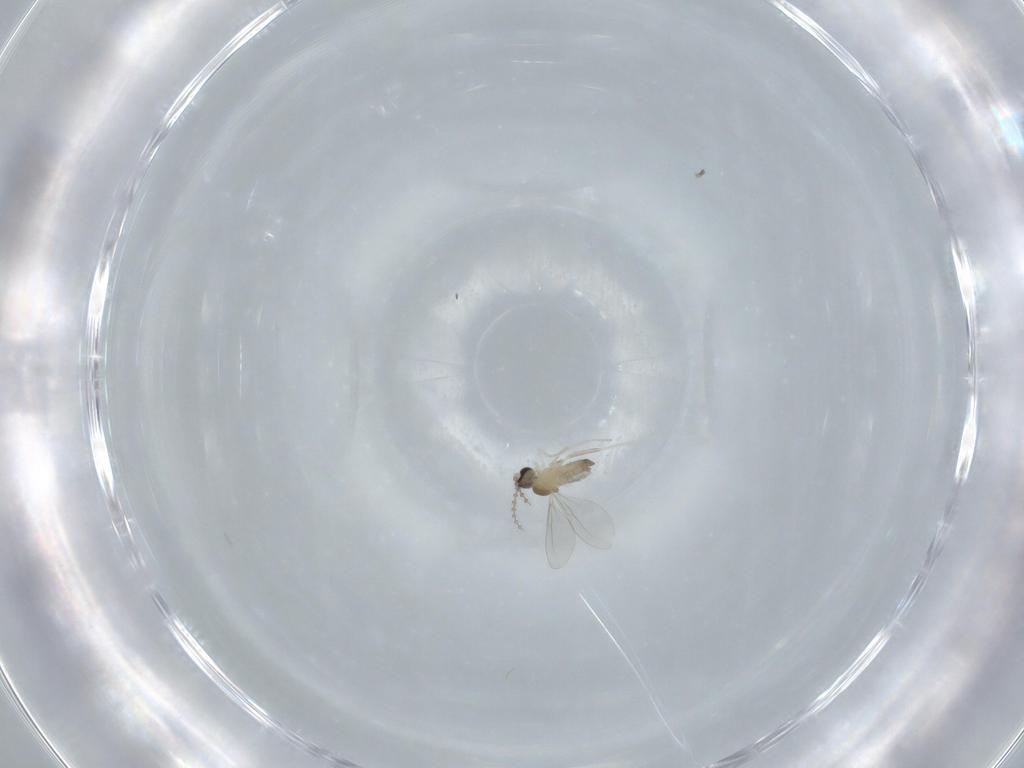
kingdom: Animalia
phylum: Arthropoda
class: Insecta
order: Diptera
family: Cecidomyiidae
